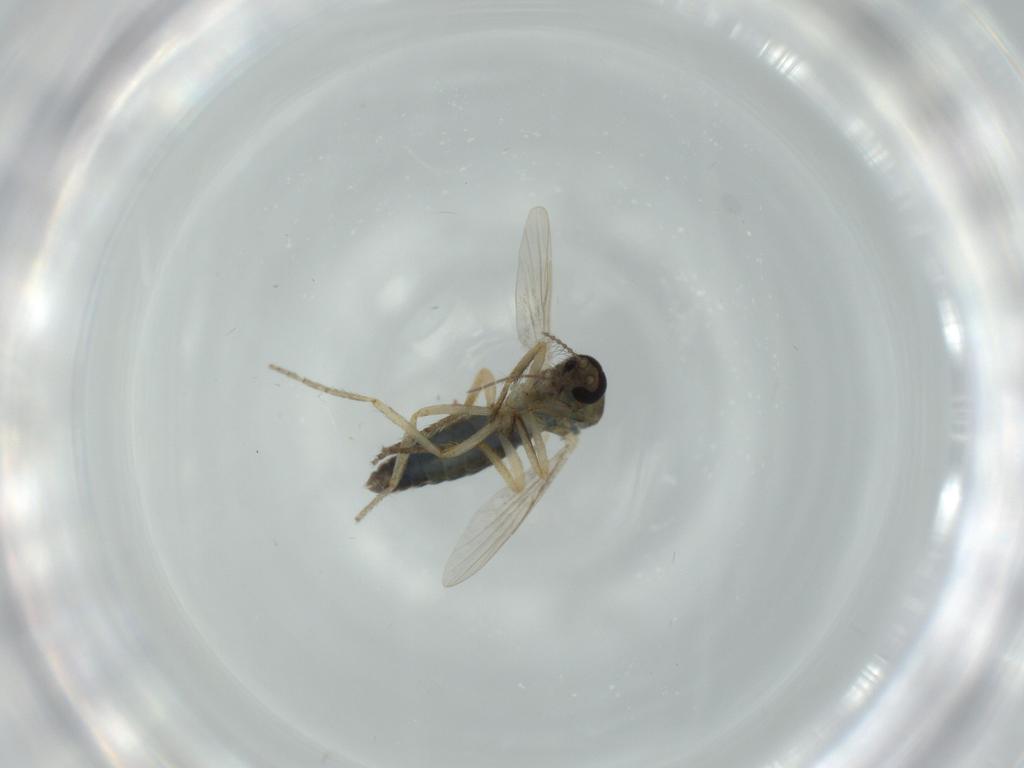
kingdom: Animalia
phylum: Arthropoda
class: Insecta
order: Diptera
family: Ceratopogonidae
